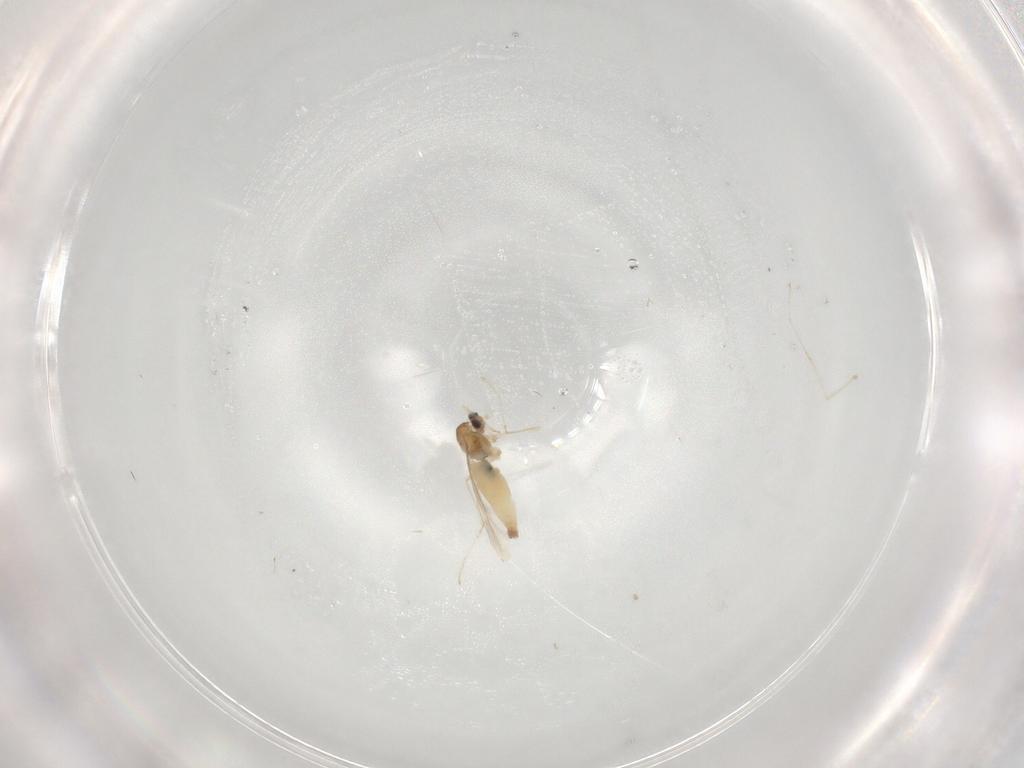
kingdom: Animalia
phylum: Arthropoda
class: Insecta
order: Diptera
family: Cecidomyiidae
